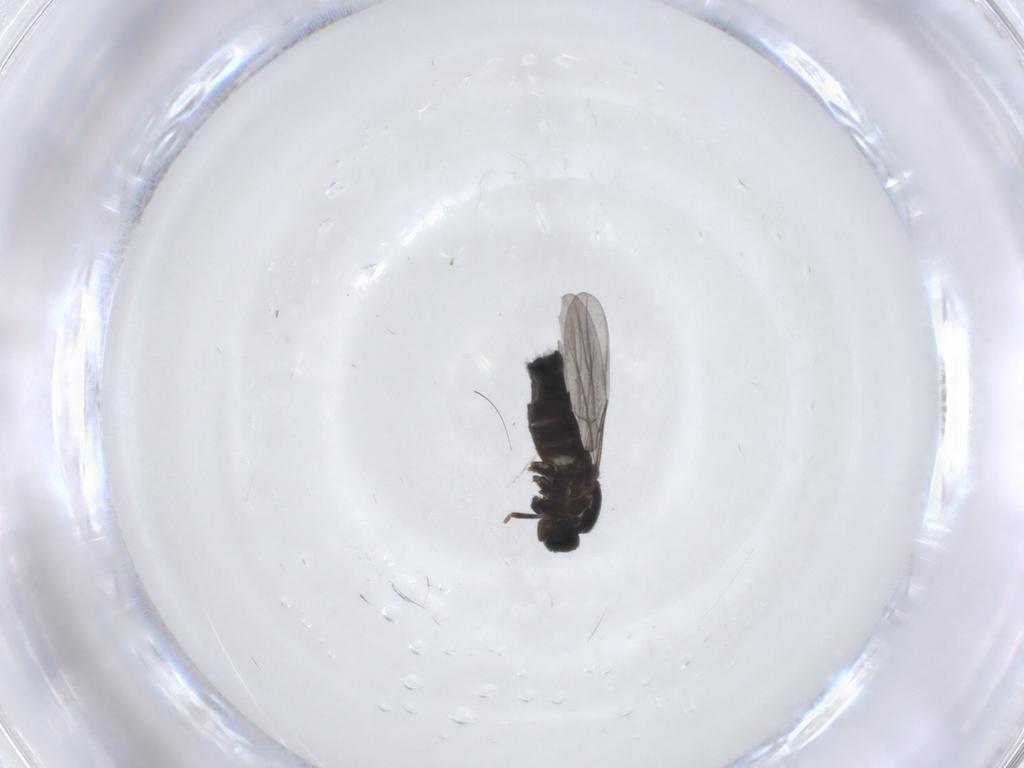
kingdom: Animalia
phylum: Arthropoda
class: Insecta
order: Diptera
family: Scatopsidae
